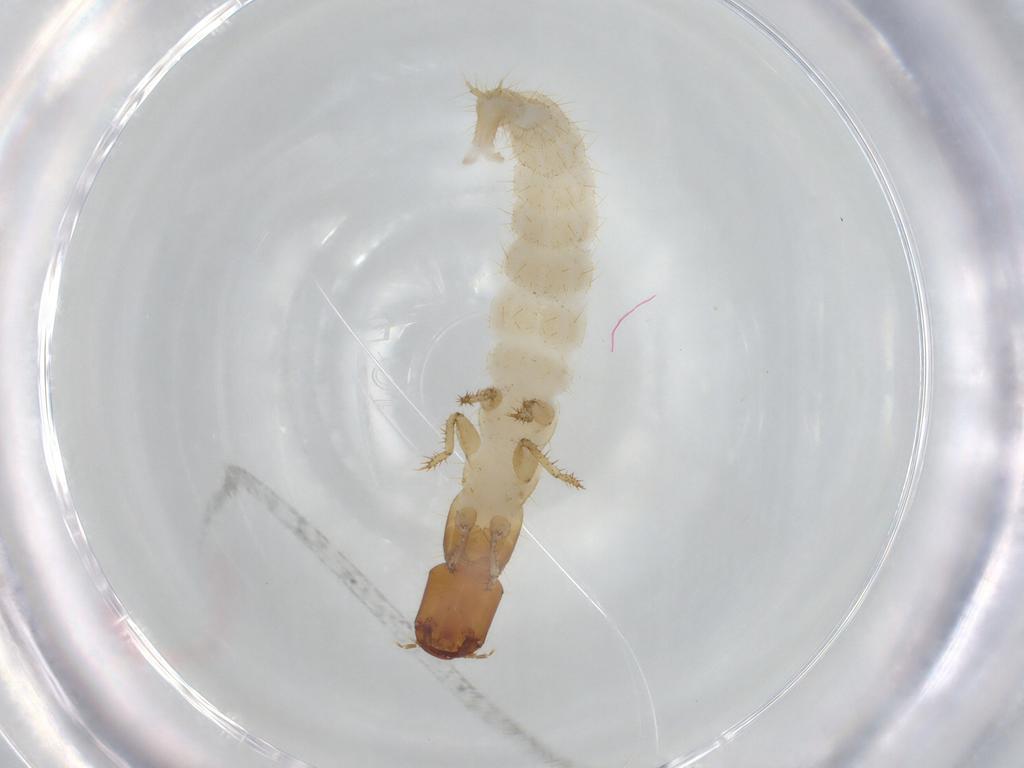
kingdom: Animalia
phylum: Arthropoda
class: Insecta
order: Coleoptera
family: Staphylinidae
